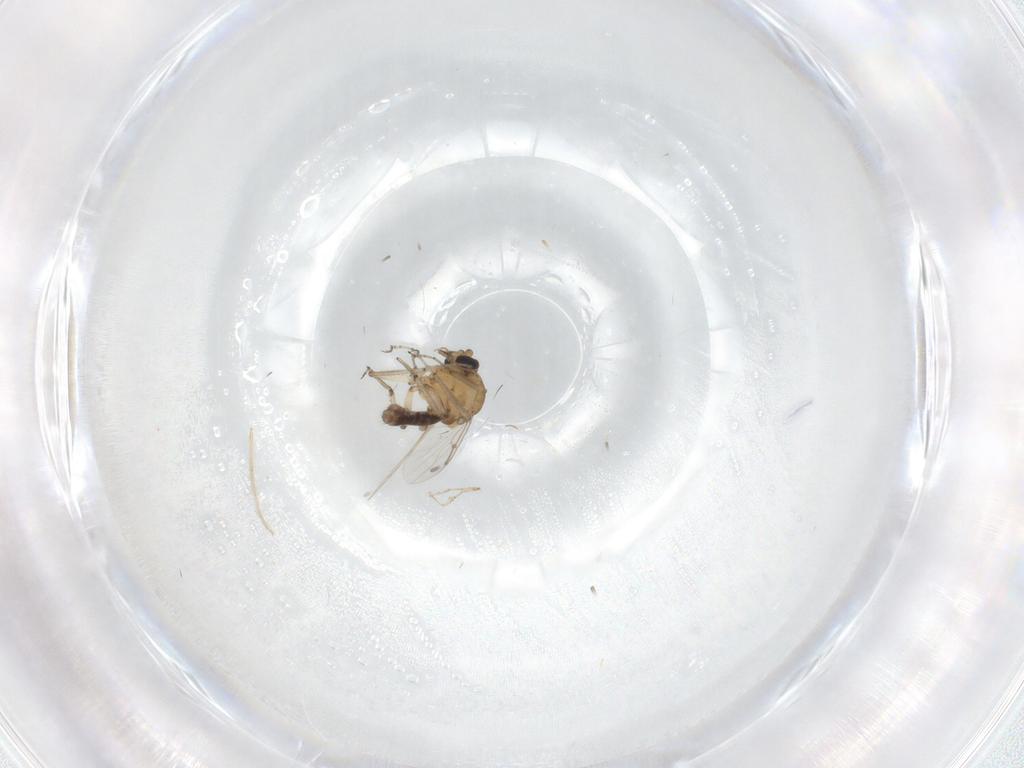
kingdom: Animalia
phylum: Arthropoda
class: Insecta
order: Diptera
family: Ceratopogonidae
